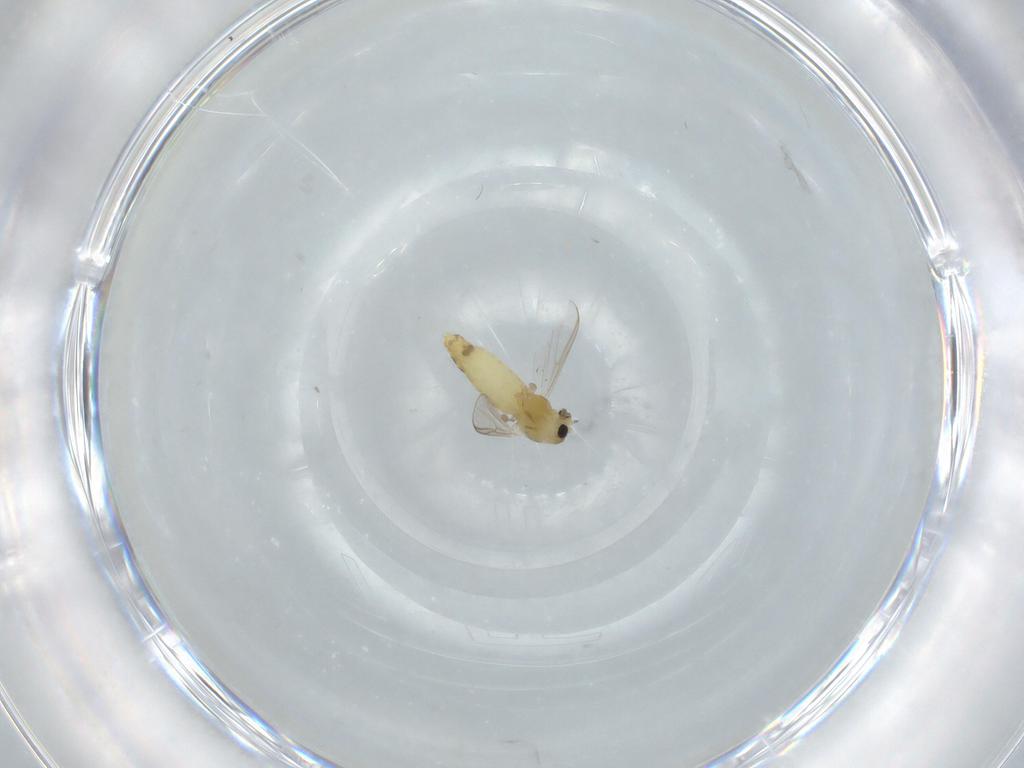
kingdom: Animalia
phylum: Arthropoda
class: Insecta
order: Diptera
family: Chironomidae
